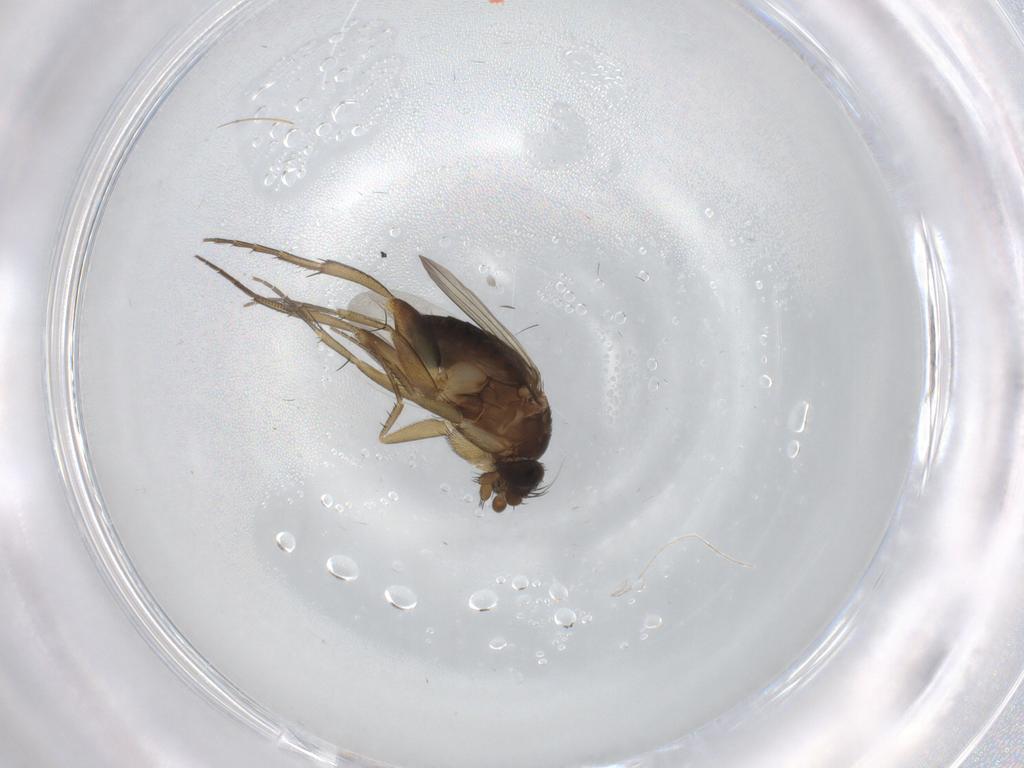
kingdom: Animalia
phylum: Arthropoda
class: Insecta
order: Diptera
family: Phoridae
